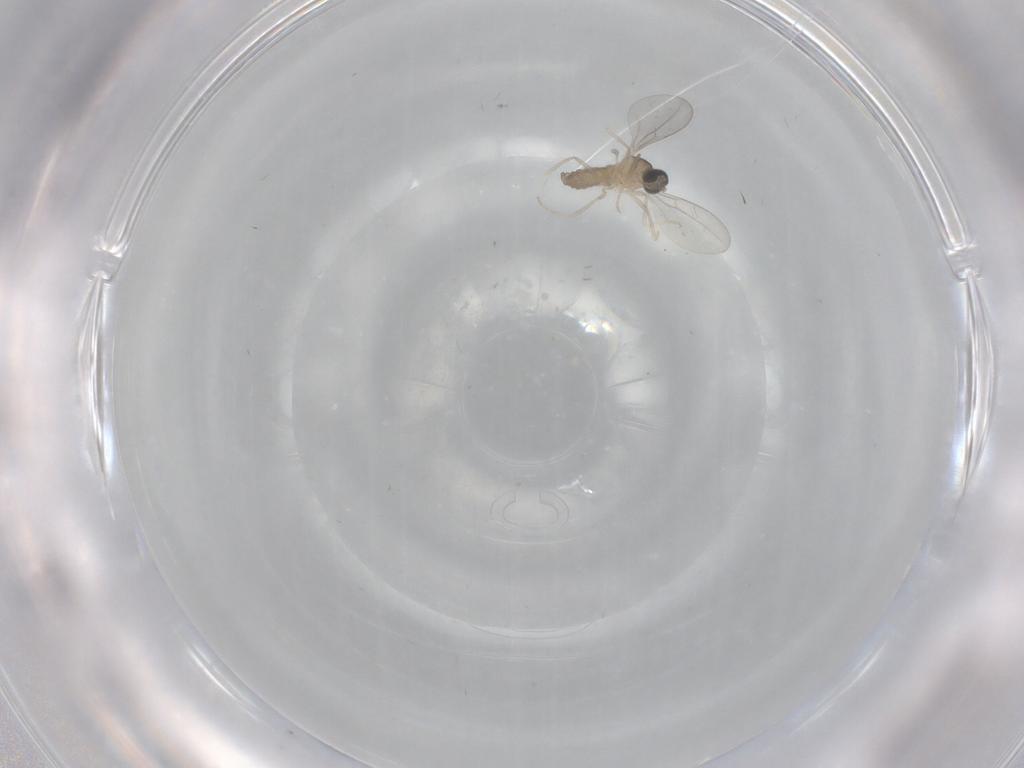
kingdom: Animalia
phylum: Arthropoda
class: Insecta
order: Diptera
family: Cecidomyiidae
